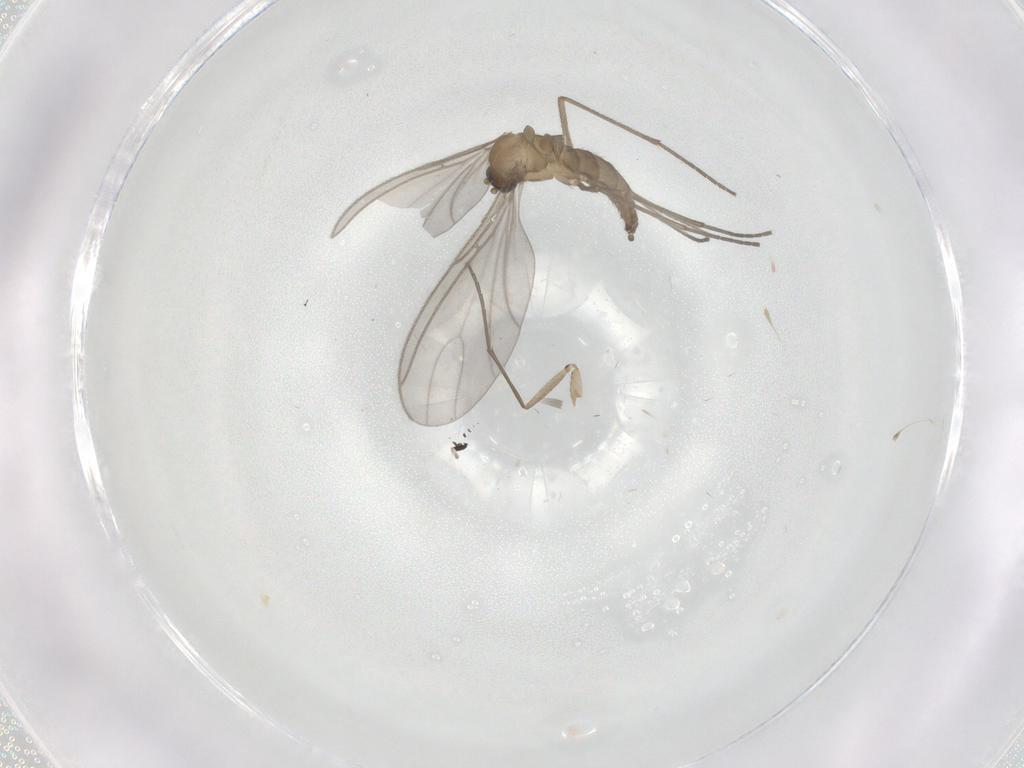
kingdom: Animalia
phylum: Arthropoda
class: Insecta
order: Diptera
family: Sciaridae
